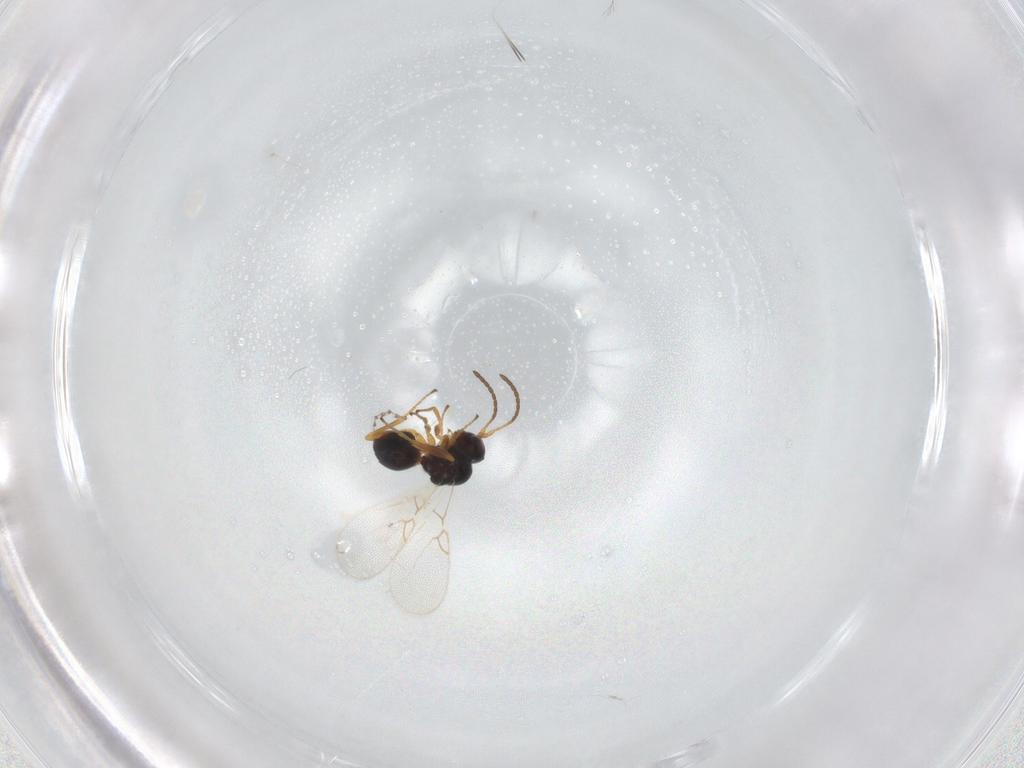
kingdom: Animalia
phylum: Arthropoda
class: Insecta
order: Hymenoptera
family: Figitidae
